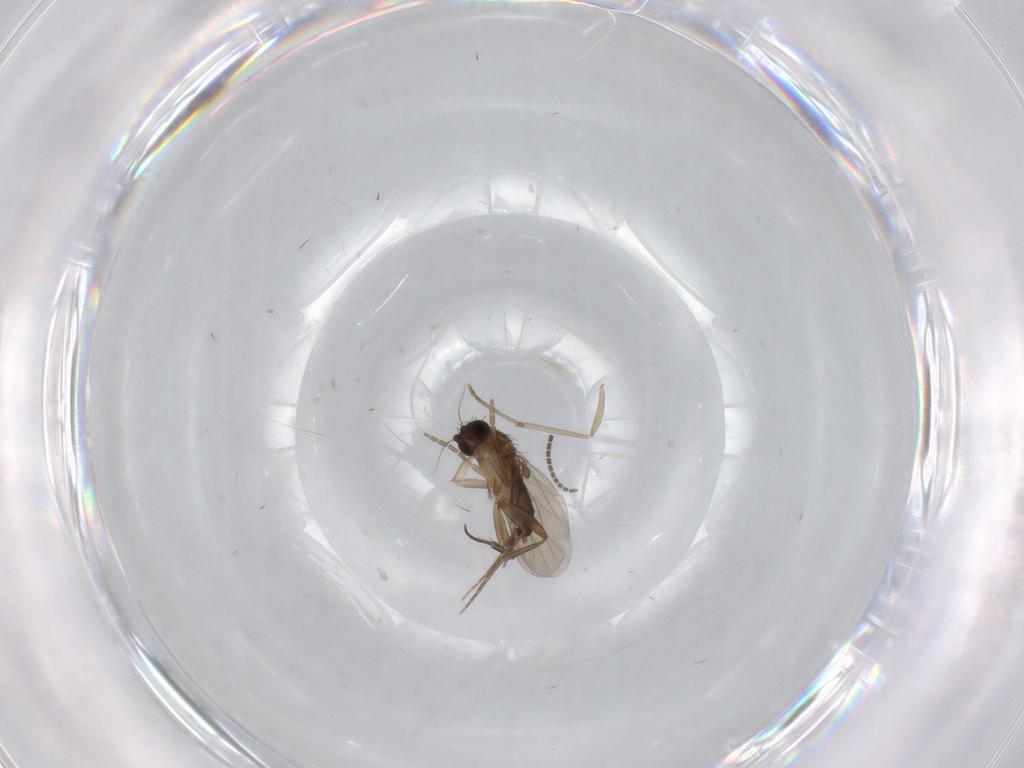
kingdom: Animalia
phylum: Arthropoda
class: Insecta
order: Diptera
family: Phoridae
